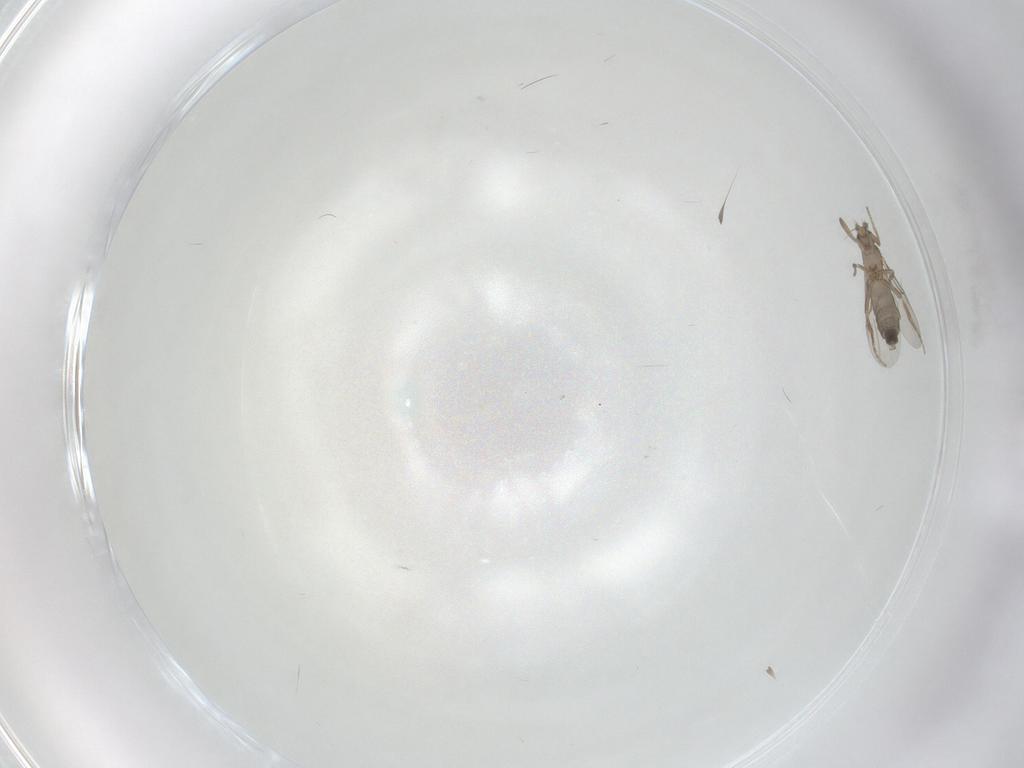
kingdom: Animalia
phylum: Arthropoda
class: Insecta
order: Diptera
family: Phoridae
